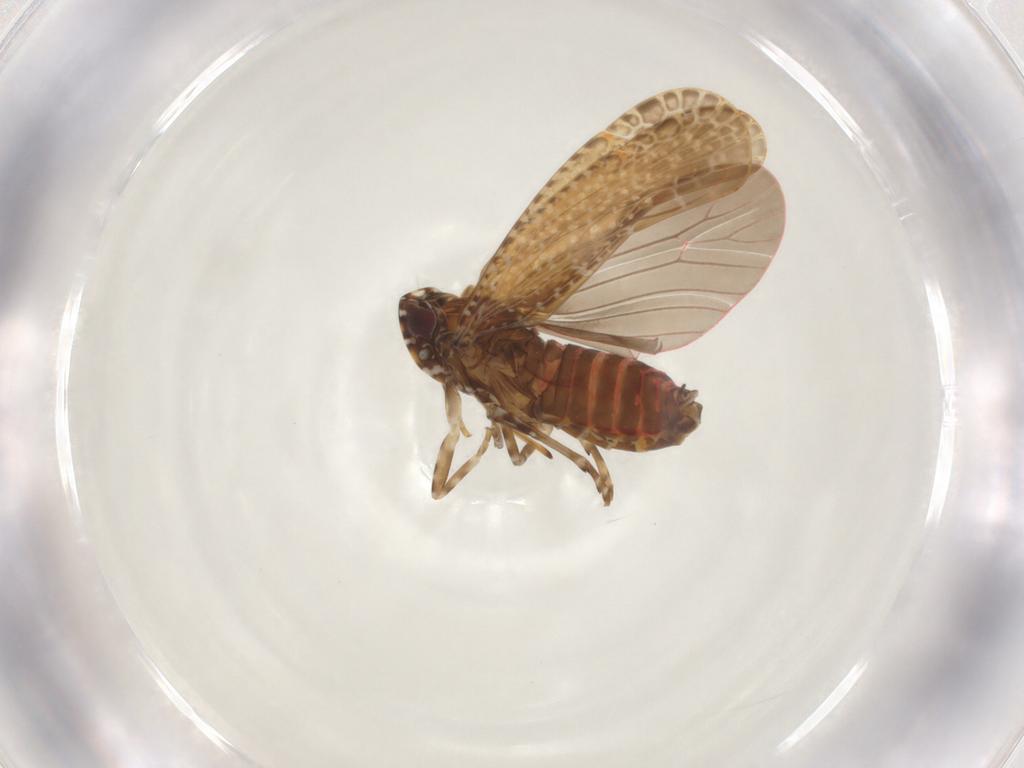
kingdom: Animalia
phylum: Arthropoda
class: Insecta
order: Hemiptera
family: Achilidae
